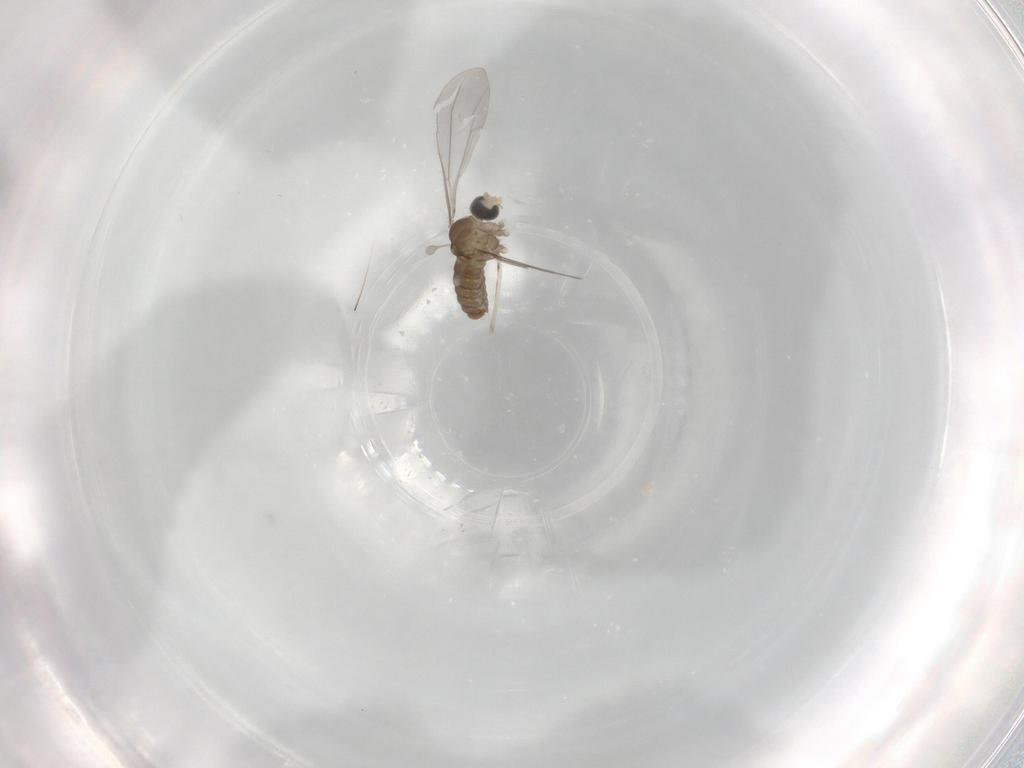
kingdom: Animalia
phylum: Arthropoda
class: Insecta
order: Diptera
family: Cecidomyiidae
